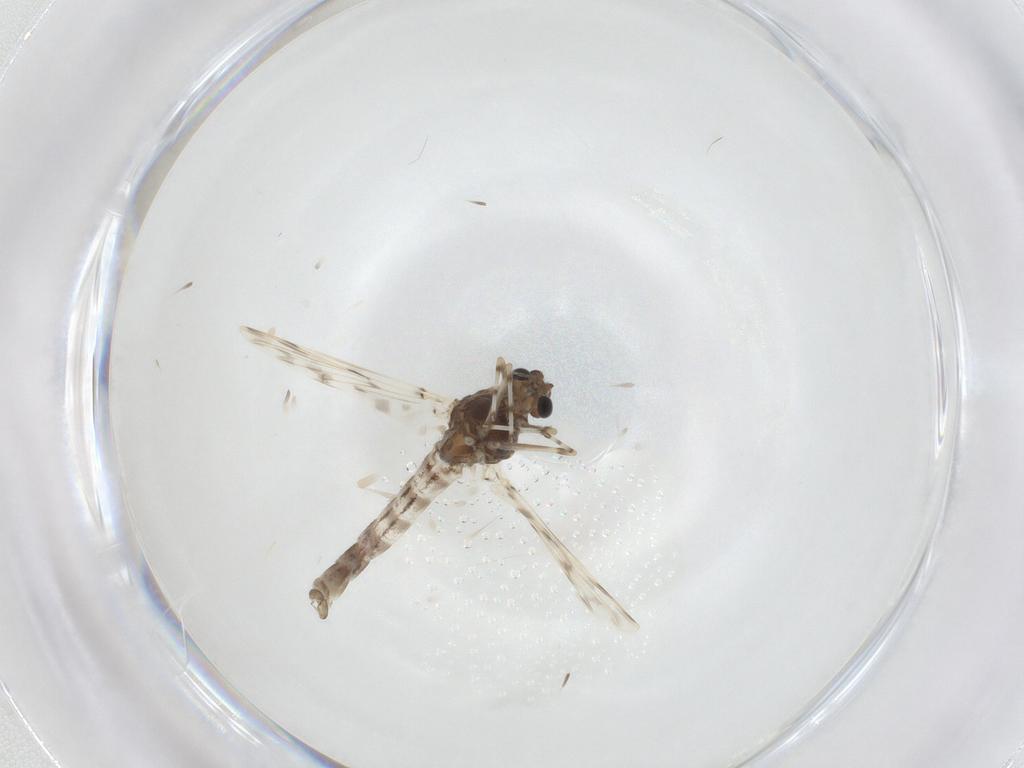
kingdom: Animalia
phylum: Arthropoda
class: Insecta
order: Diptera
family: Chironomidae
